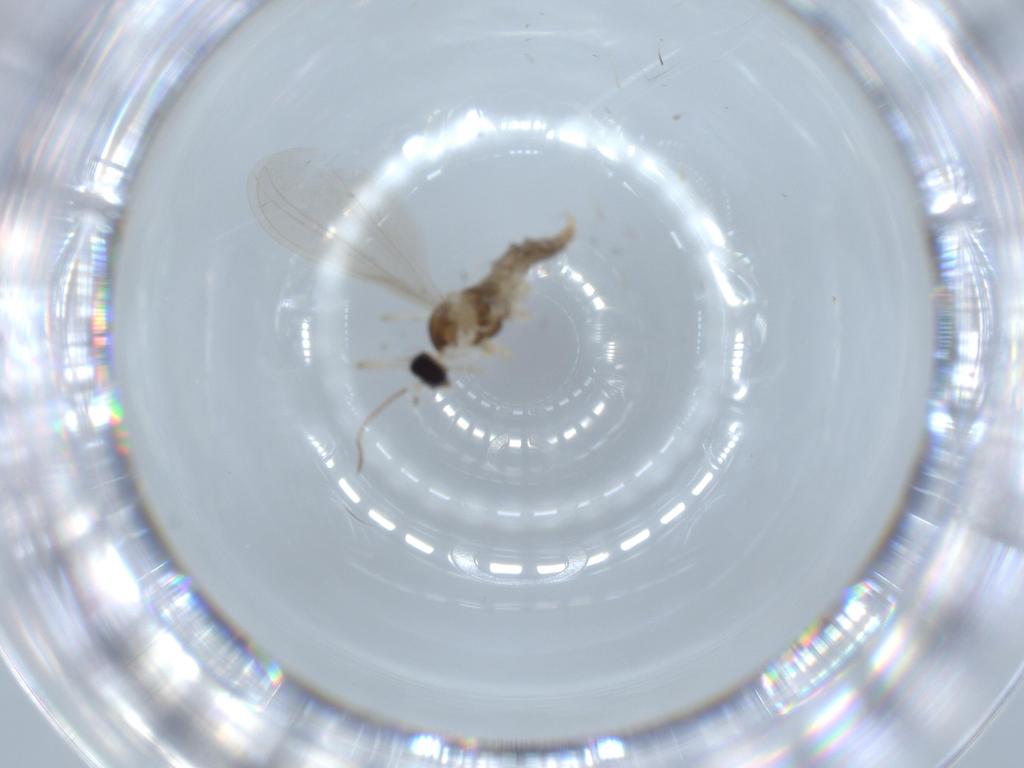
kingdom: Animalia
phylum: Arthropoda
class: Insecta
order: Diptera
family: Cecidomyiidae
